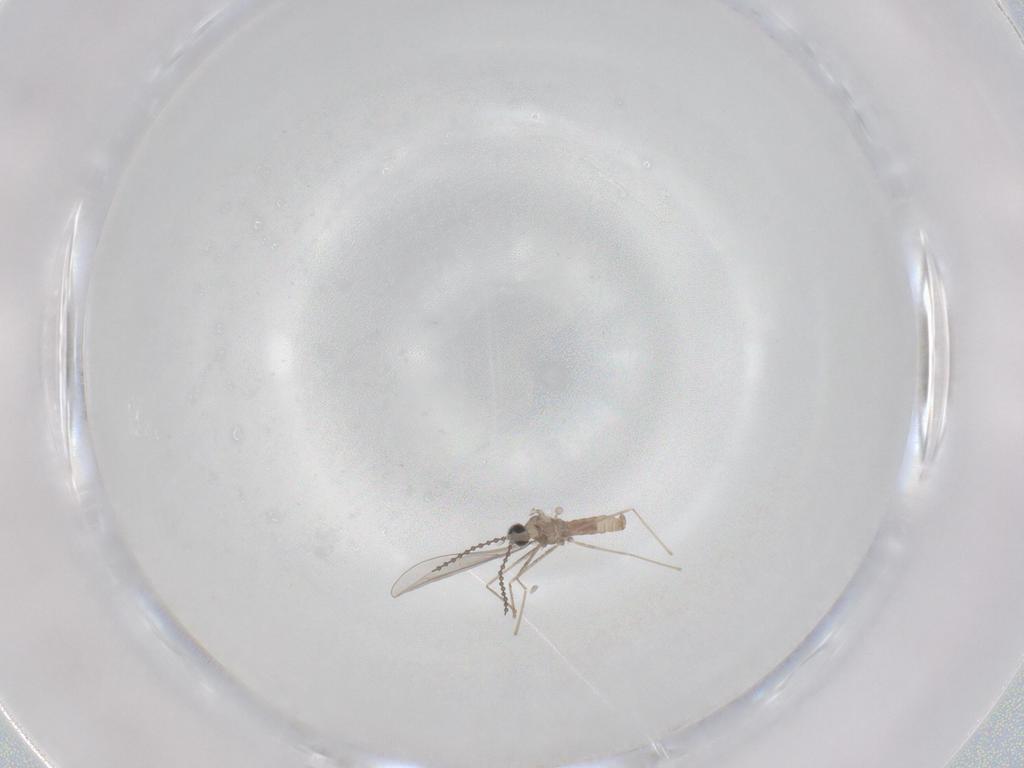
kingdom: Animalia
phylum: Arthropoda
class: Insecta
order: Diptera
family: Cecidomyiidae
